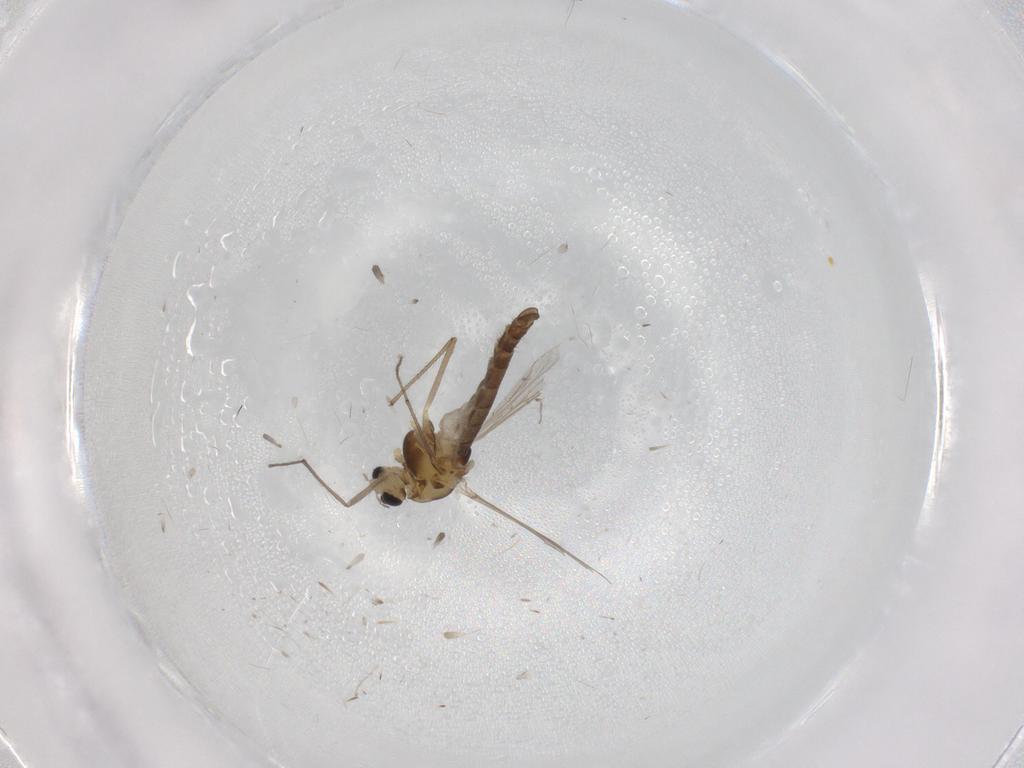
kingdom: Animalia
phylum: Arthropoda
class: Insecta
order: Diptera
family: Chironomidae
